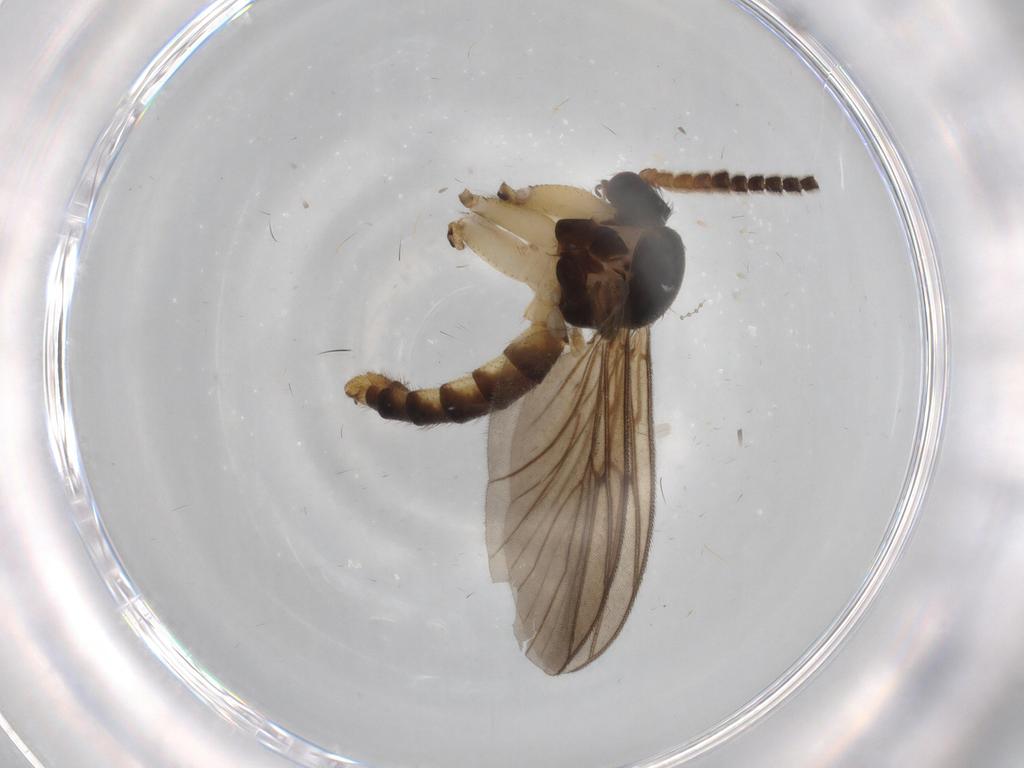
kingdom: Animalia
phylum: Arthropoda
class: Insecta
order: Diptera
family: Sciaridae
